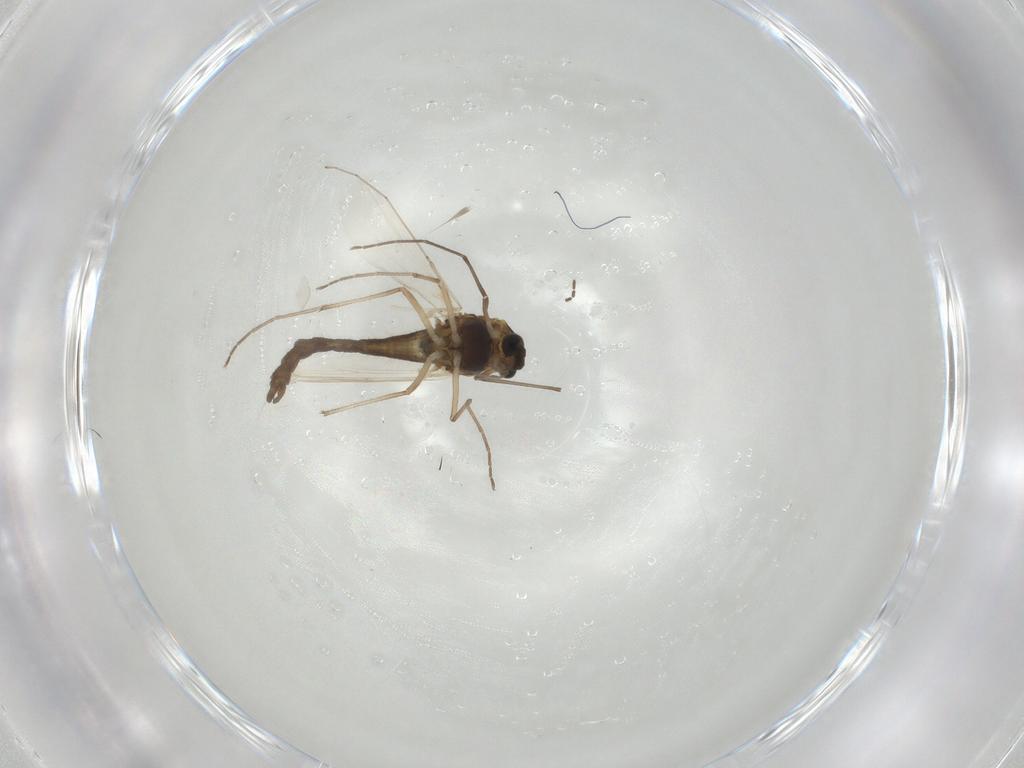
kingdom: Animalia
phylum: Arthropoda
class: Insecta
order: Diptera
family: Chironomidae
